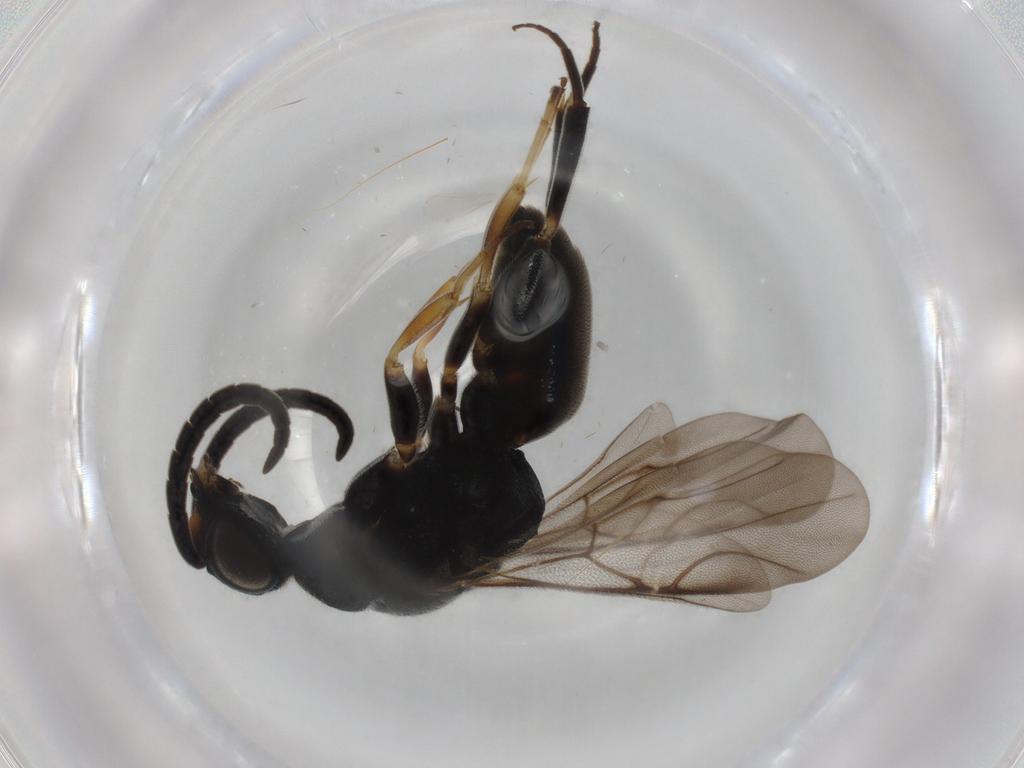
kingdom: Animalia
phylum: Arthropoda
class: Insecta
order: Hymenoptera
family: Chrysididae
